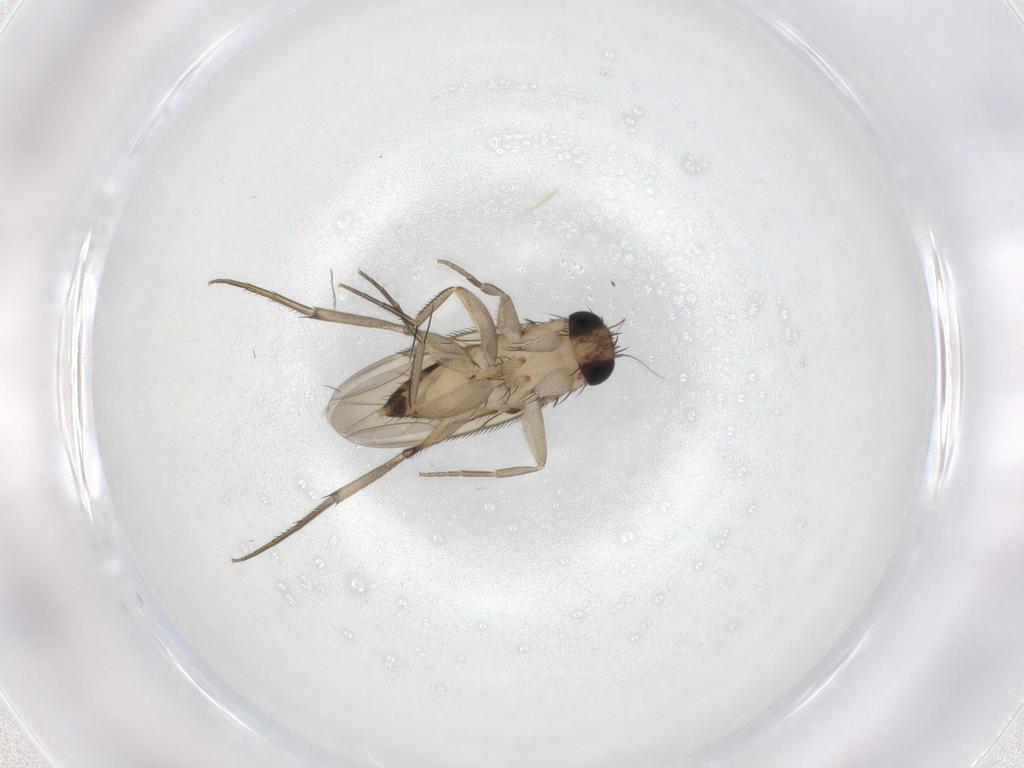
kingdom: Animalia
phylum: Arthropoda
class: Insecta
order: Diptera
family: Phoridae
